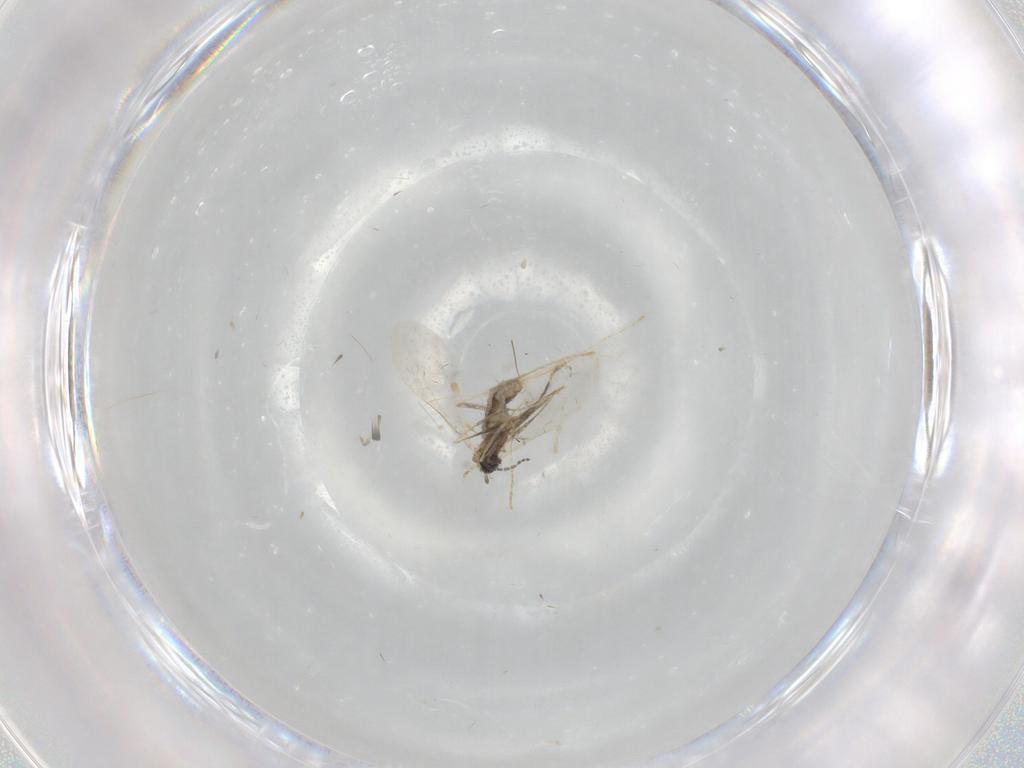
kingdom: Animalia
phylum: Arthropoda
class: Insecta
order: Diptera
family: Cecidomyiidae
